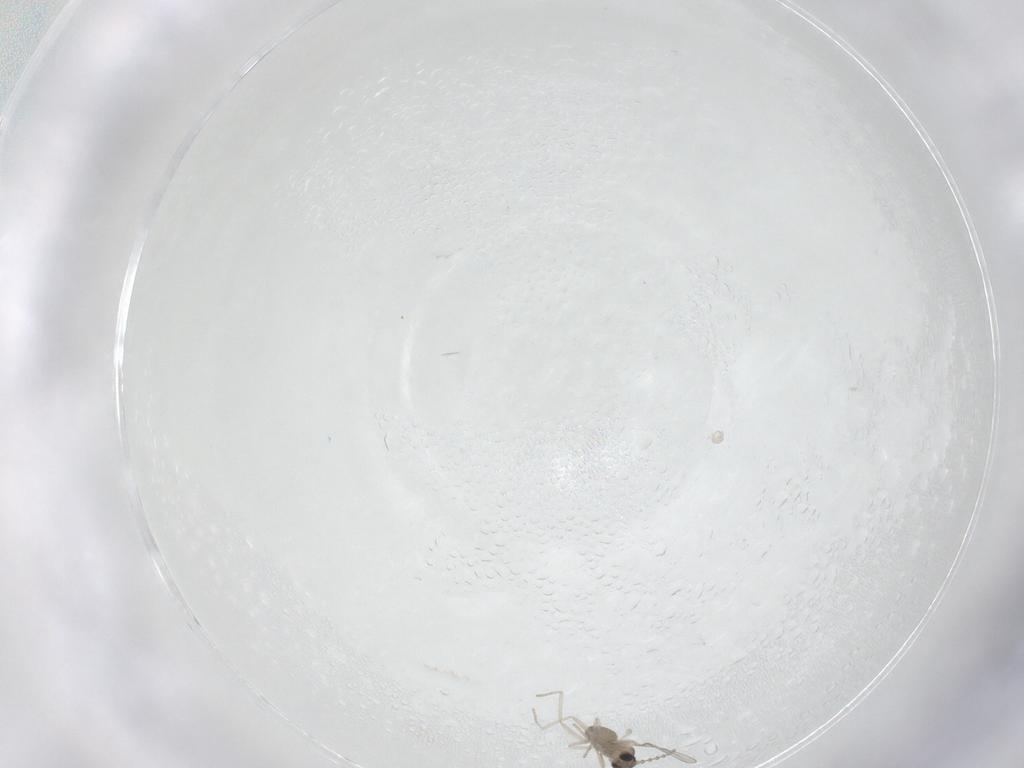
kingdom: Animalia
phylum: Arthropoda
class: Insecta
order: Diptera
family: Cecidomyiidae
